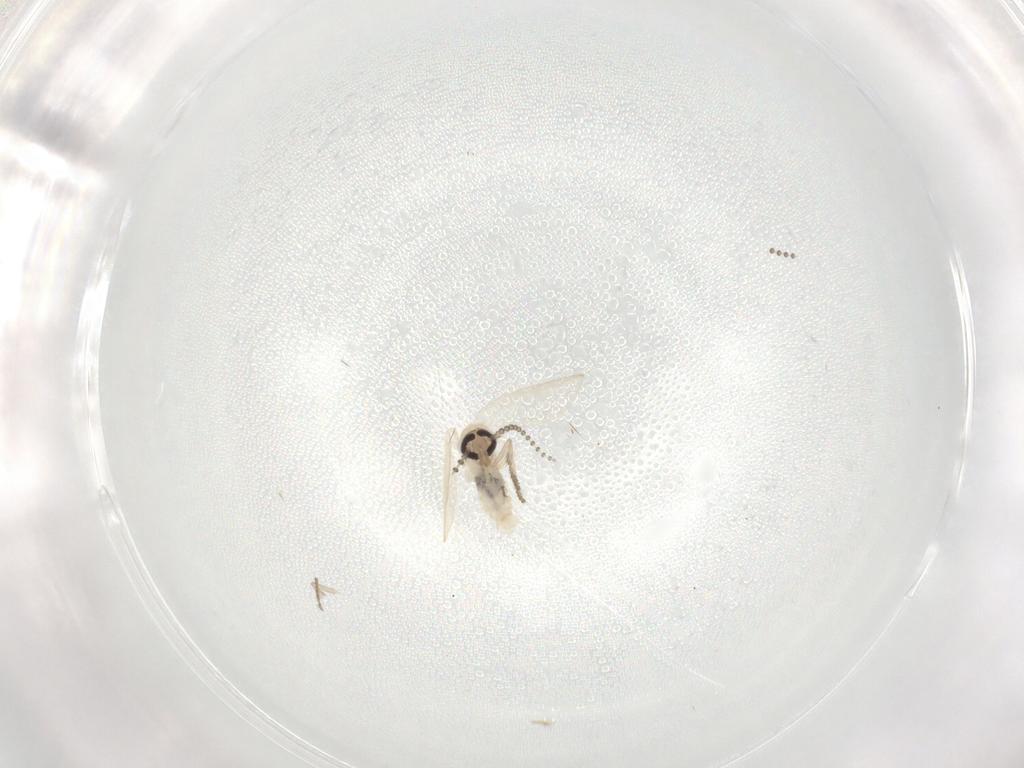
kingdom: Animalia
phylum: Arthropoda
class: Insecta
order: Diptera
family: Psychodidae
